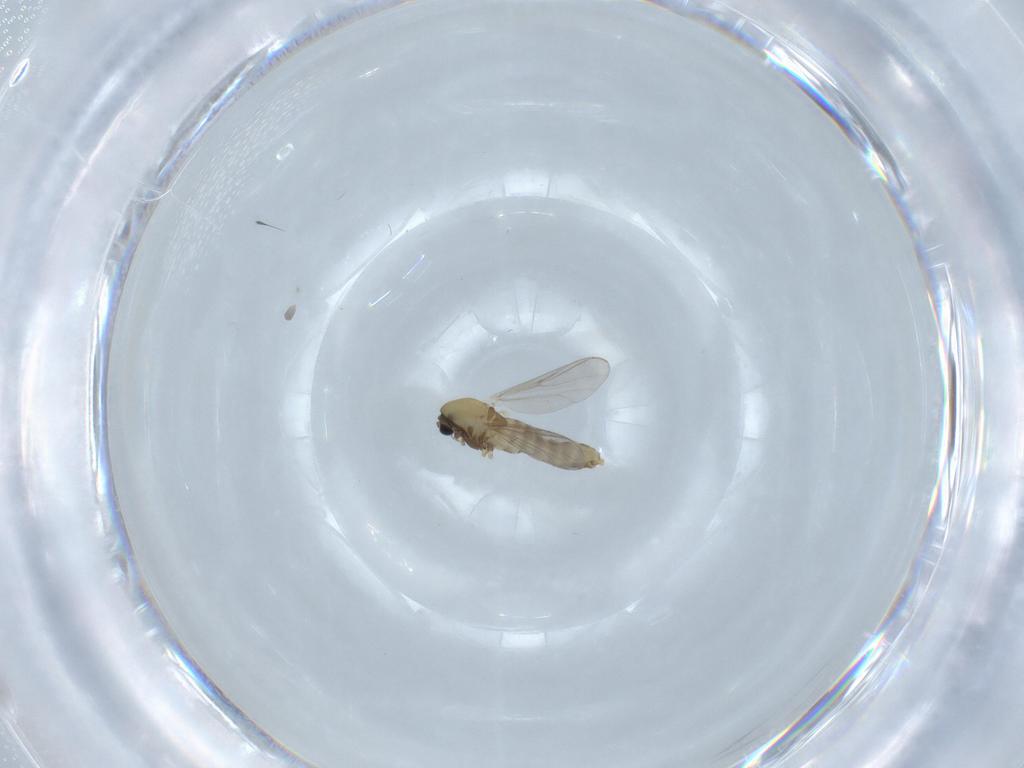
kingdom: Animalia
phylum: Arthropoda
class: Insecta
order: Diptera
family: Chironomidae
